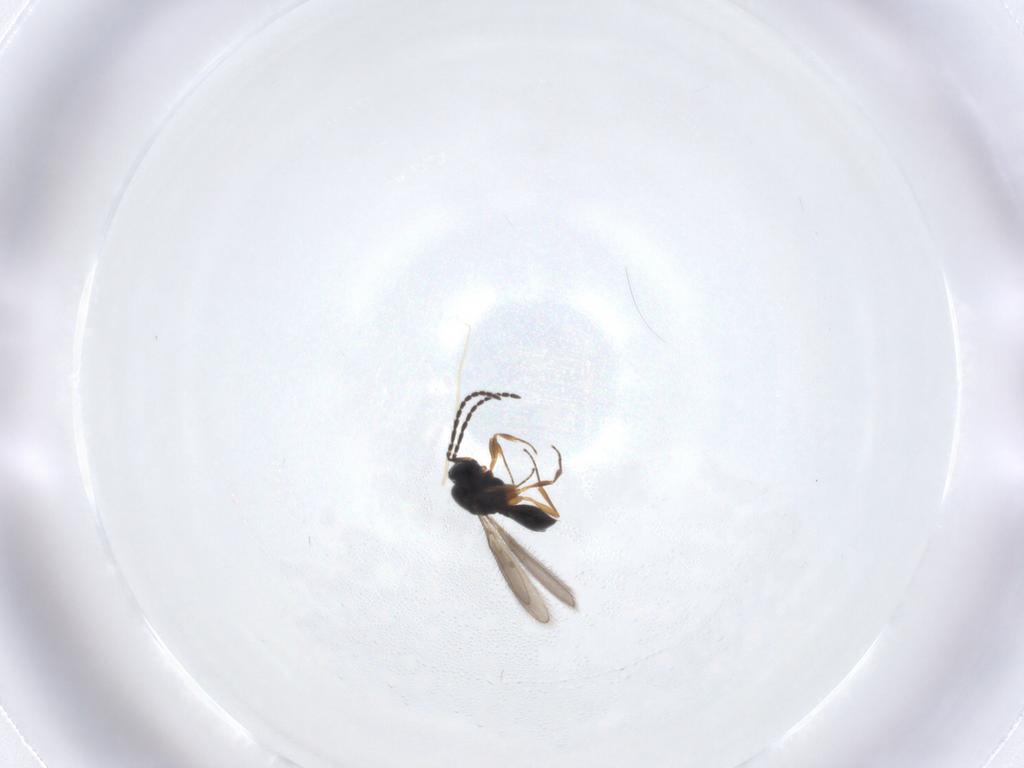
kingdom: Animalia
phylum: Arthropoda
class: Insecta
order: Hymenoptera
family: Scelionidae
